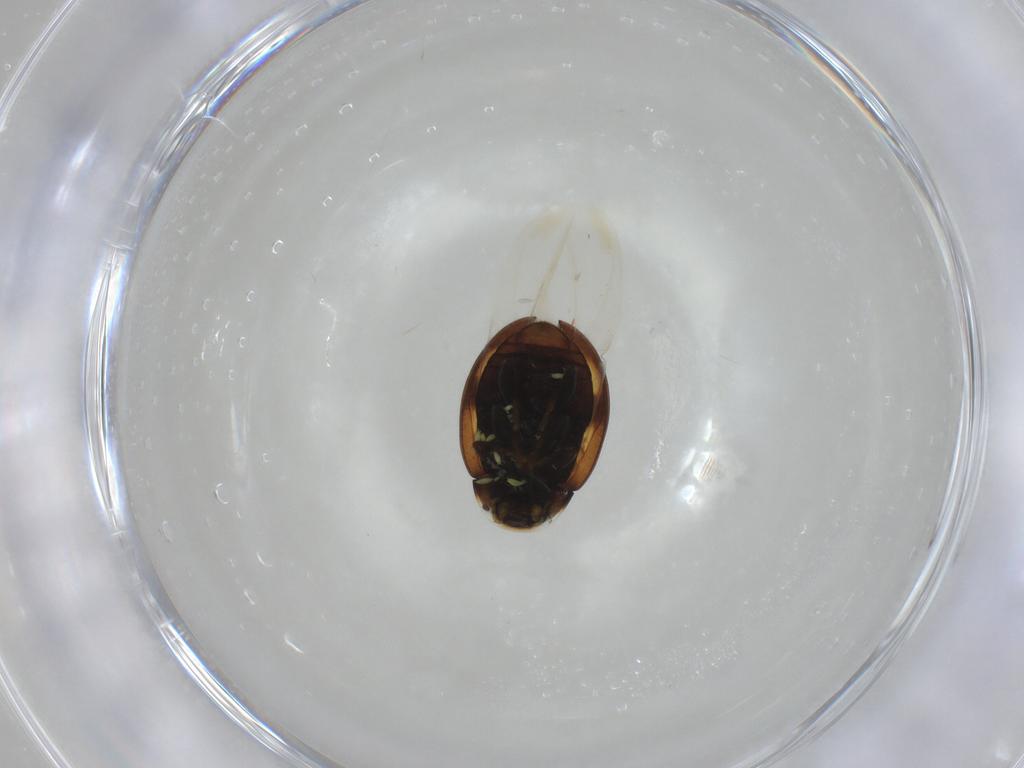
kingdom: Animalia
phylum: Arthropoda
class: Insecta
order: Coleoptera
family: Coccinellidae
